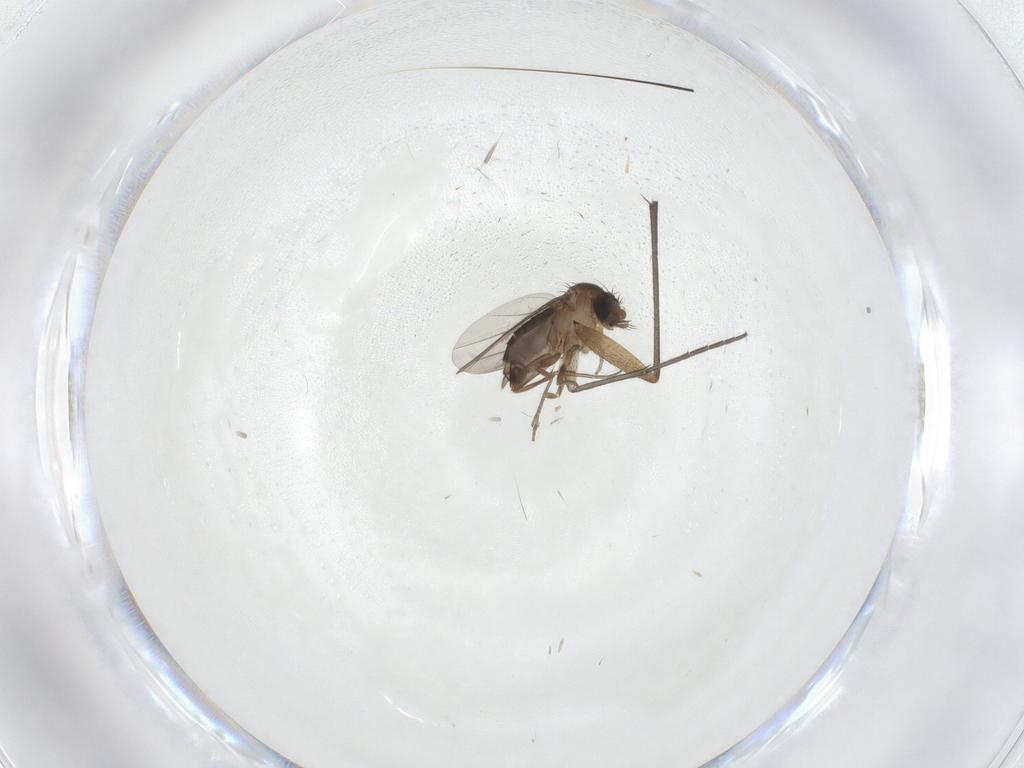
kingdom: Animalia
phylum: Arthropoda
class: Insecta
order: Diptera
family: Phoridae
